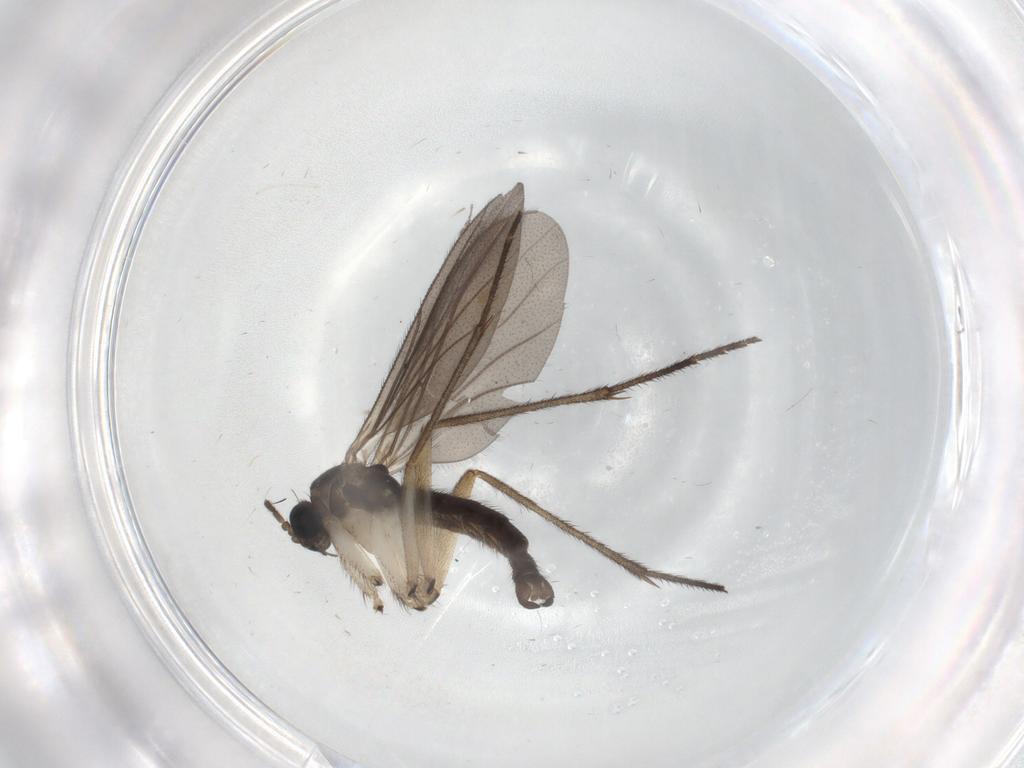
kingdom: Animalia
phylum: Arthropoda
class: Insecta
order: Diptera
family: Sciaridae
